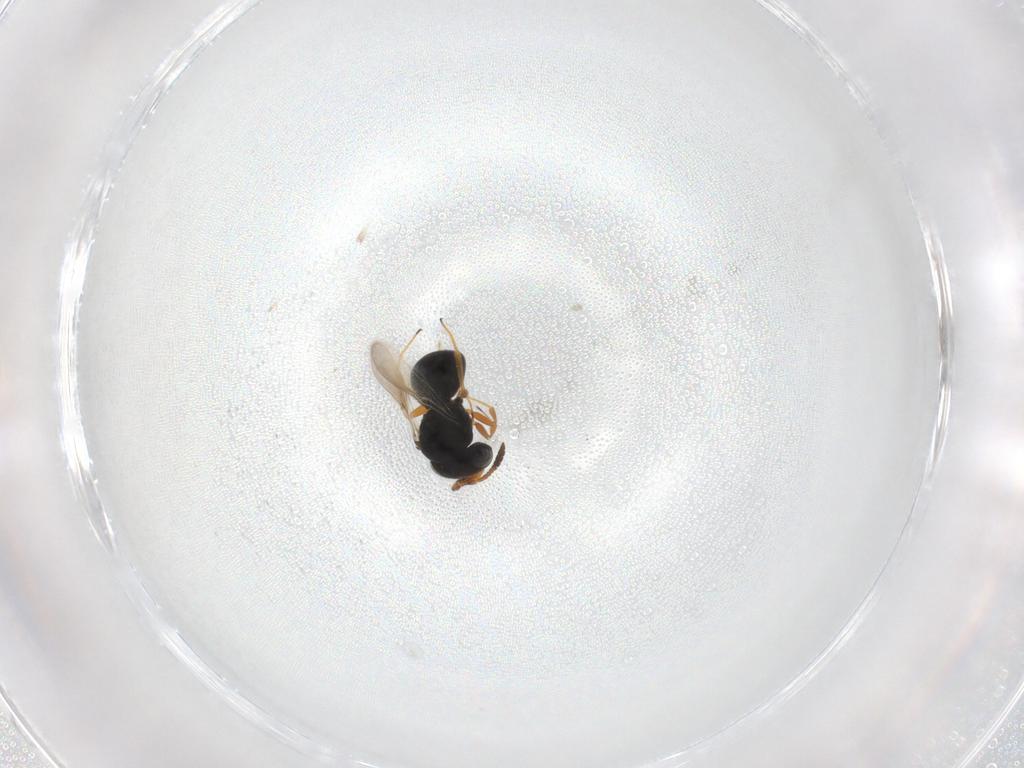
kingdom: Animalia
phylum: Arthropoda
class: Insecta
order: Hymenoptera
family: Scelionidae
